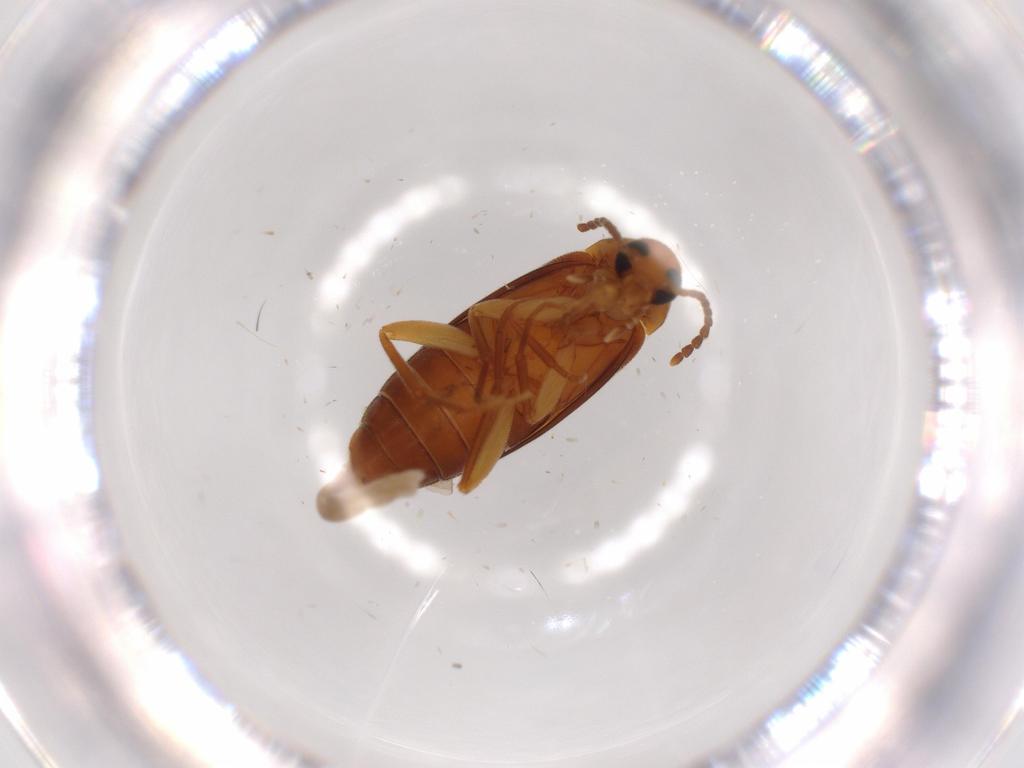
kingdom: Animalia
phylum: Arthropoda
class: Insecta
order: Coleoptera
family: Scraptiidae
